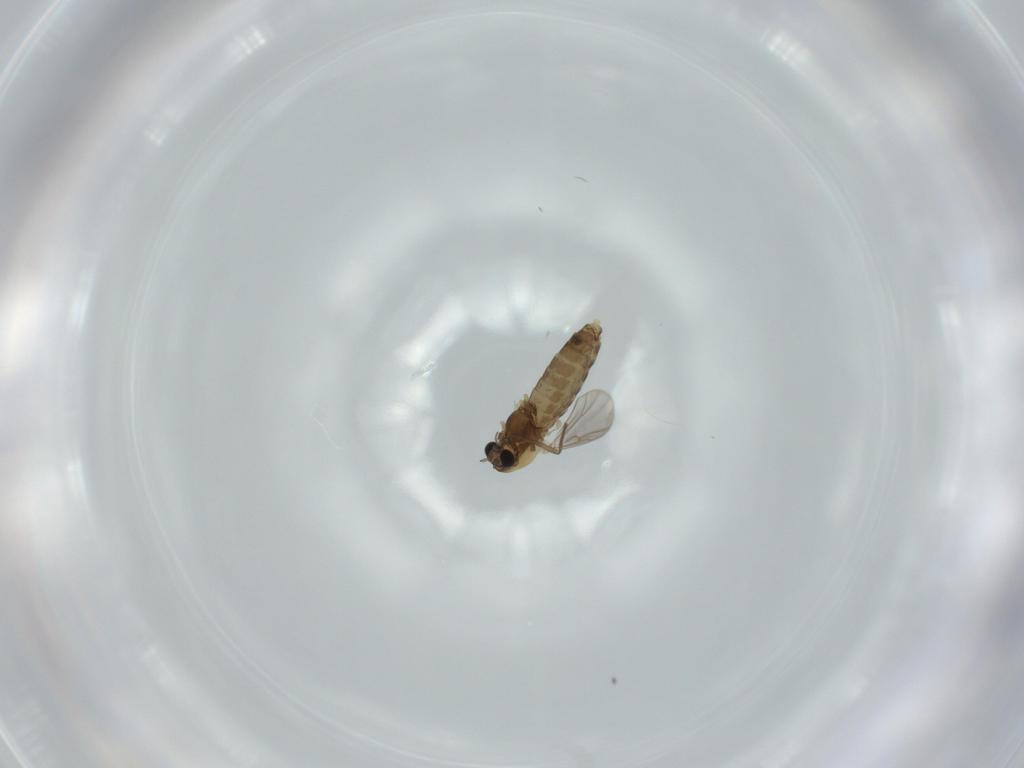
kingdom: Animalia
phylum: Arthropoda
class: Insecta
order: Diptera
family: Chironomidae
